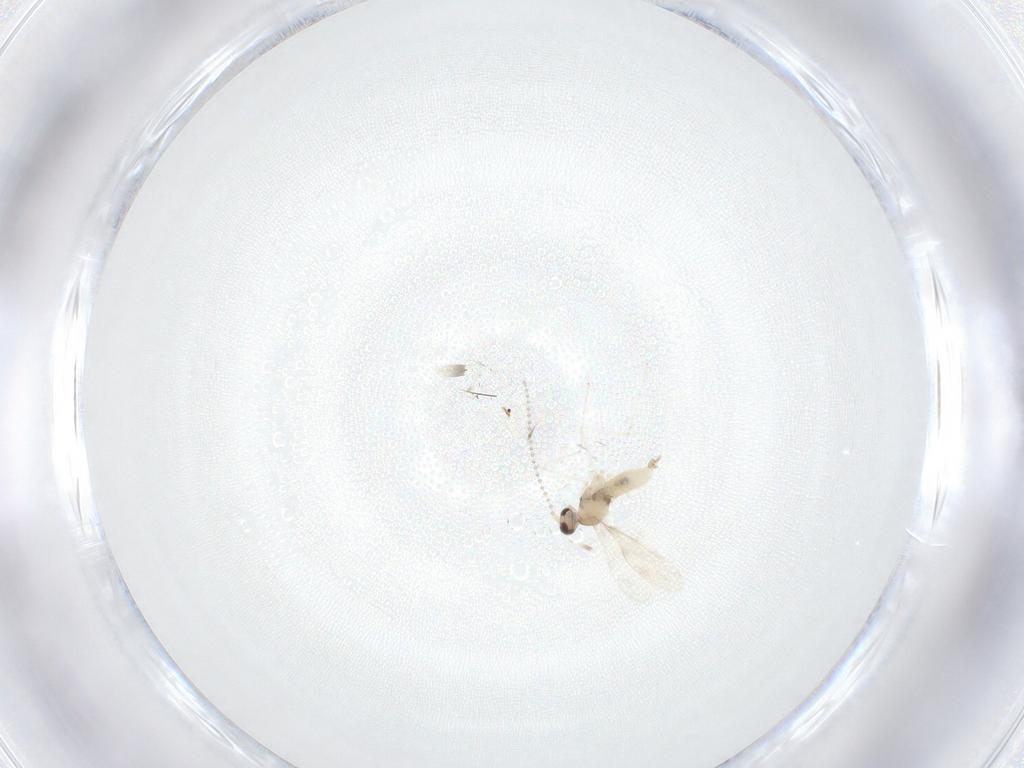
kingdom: Animalia
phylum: Arthropoda
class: Insecta
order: Diptera
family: Cecidomyiidae
